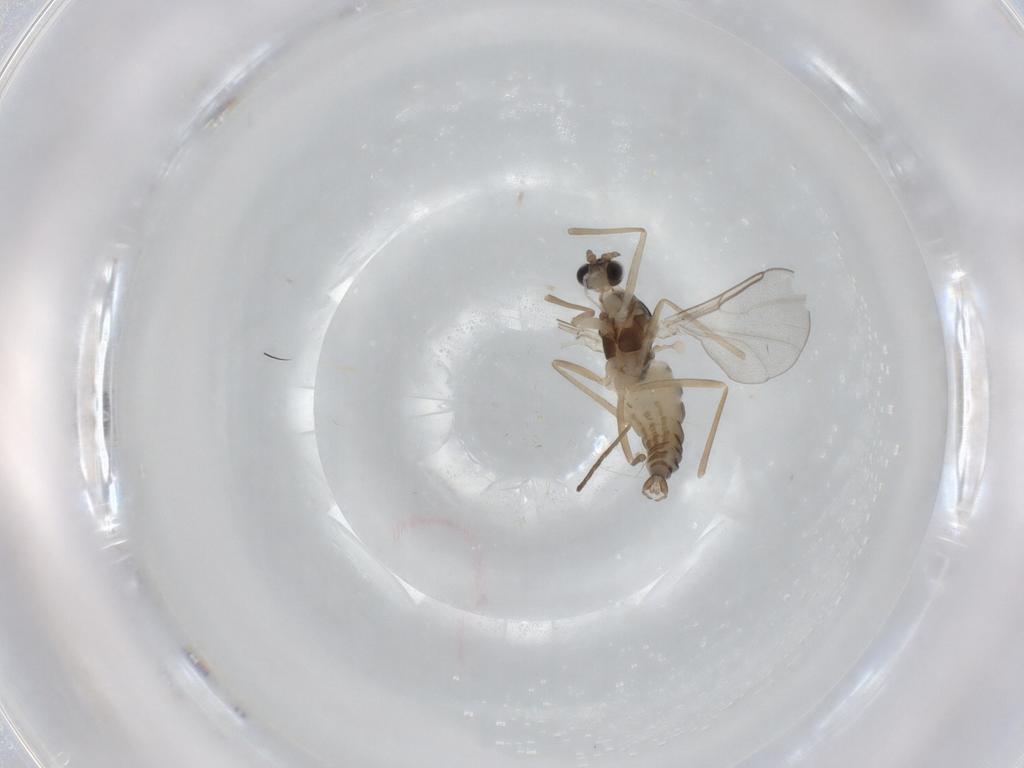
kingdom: Animalia
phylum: Arthropoda
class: Insecta
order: Diptera
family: Cecidomyiidae
